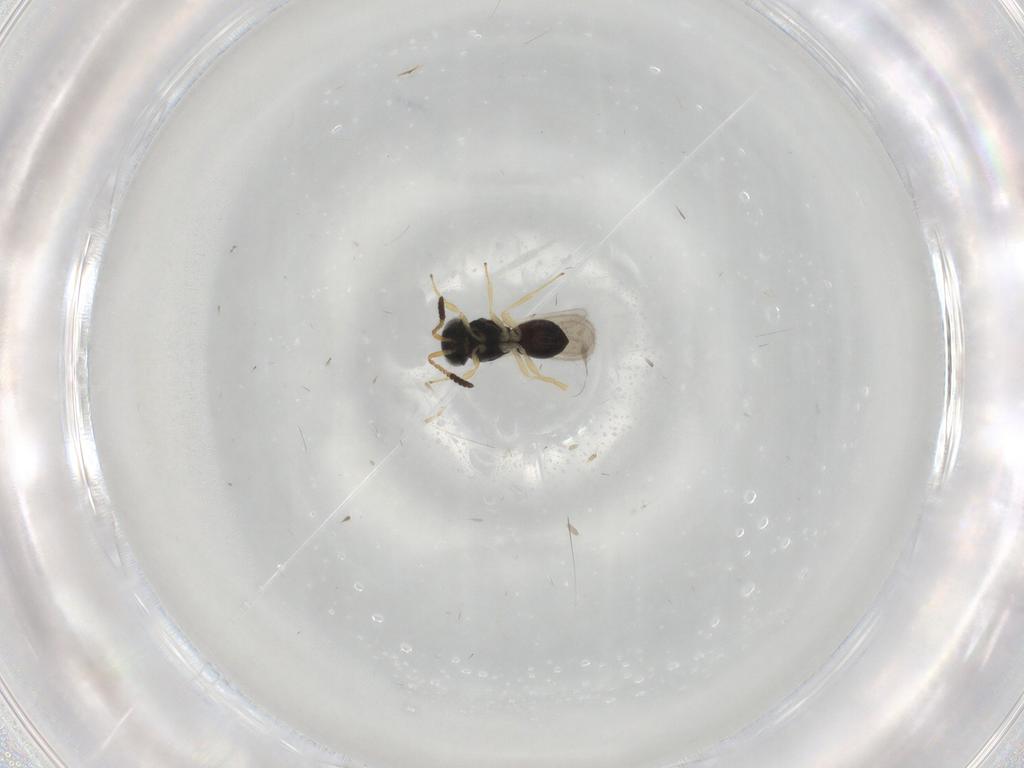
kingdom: Animalia
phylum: Arthropoda
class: Insecta
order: Hymenoptera
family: Scelionidae
